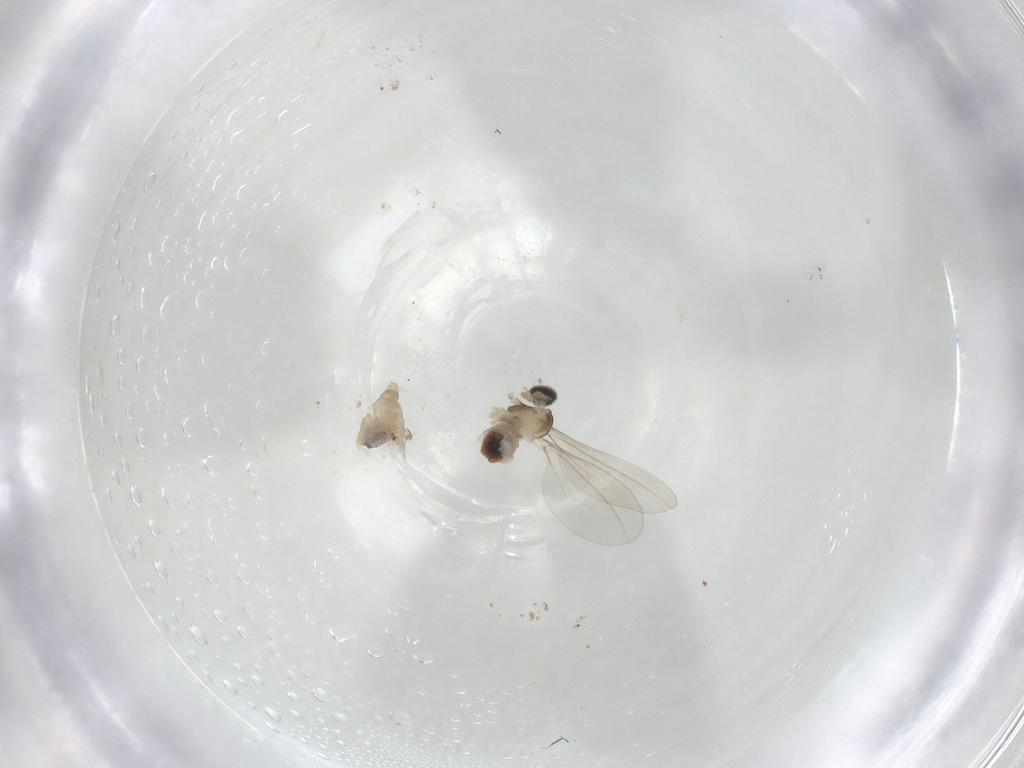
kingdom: Animalia
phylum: Arthropoda
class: Insecta
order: Diptera
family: Cecidomyiidae
